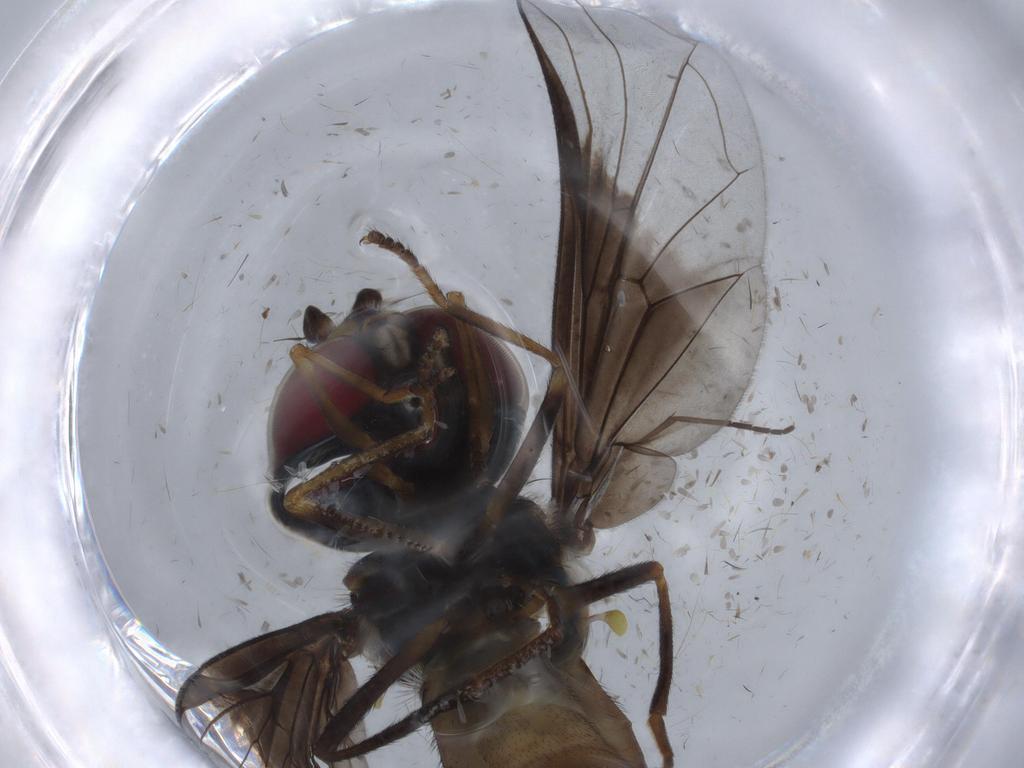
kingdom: Animalia
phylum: Arthropoda
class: Insecta
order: Diptera
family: Syrphidae
